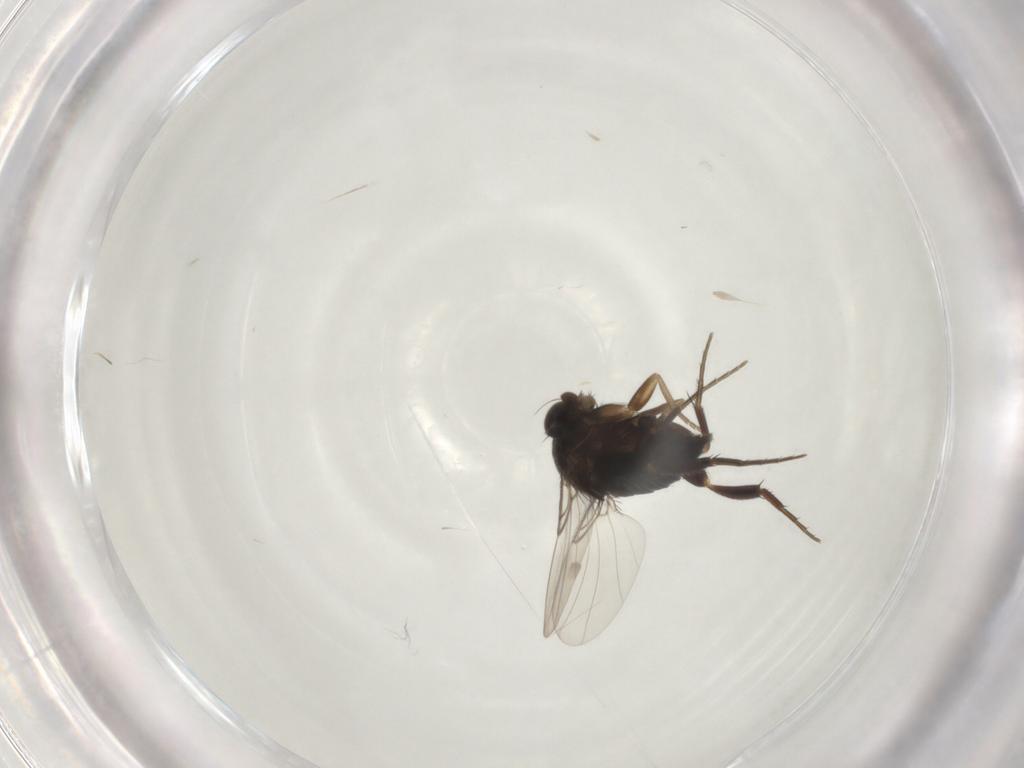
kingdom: Animalia
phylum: Arthropoda
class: Insecta
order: Diptera
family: Phoridae
